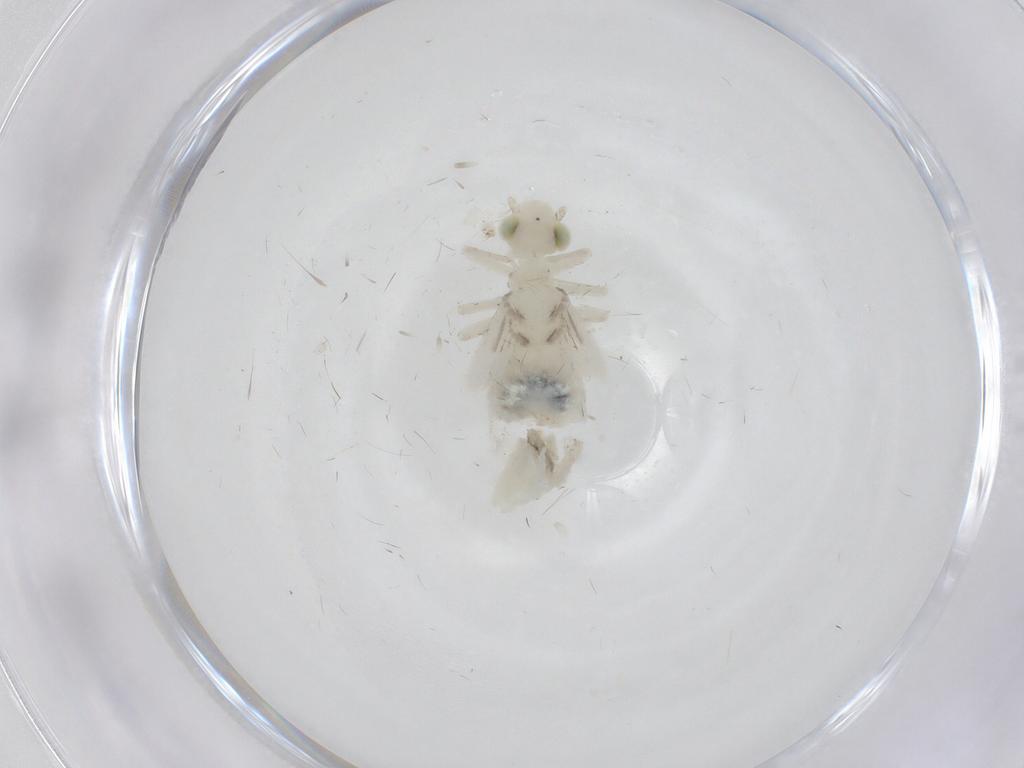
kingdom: Animalia
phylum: Arthropoda
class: Insecta
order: Psocodea
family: Caeciliusidae
